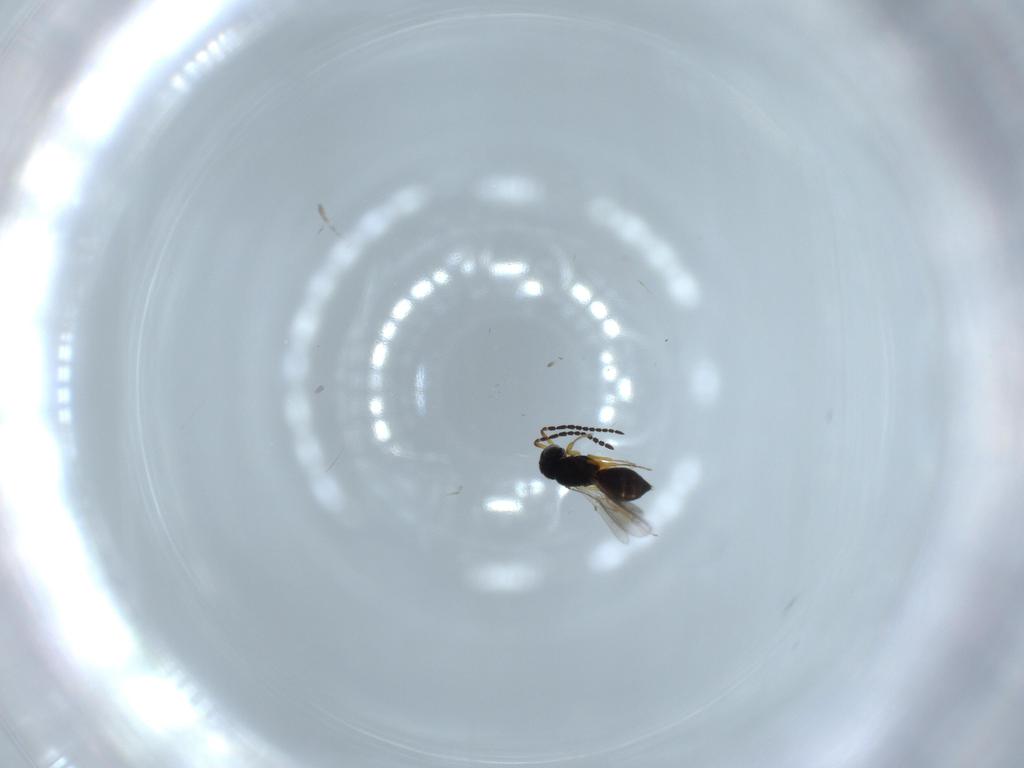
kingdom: Animalia
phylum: Arthropoda
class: Insecta
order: Hymenoptera
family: Scelionidae
